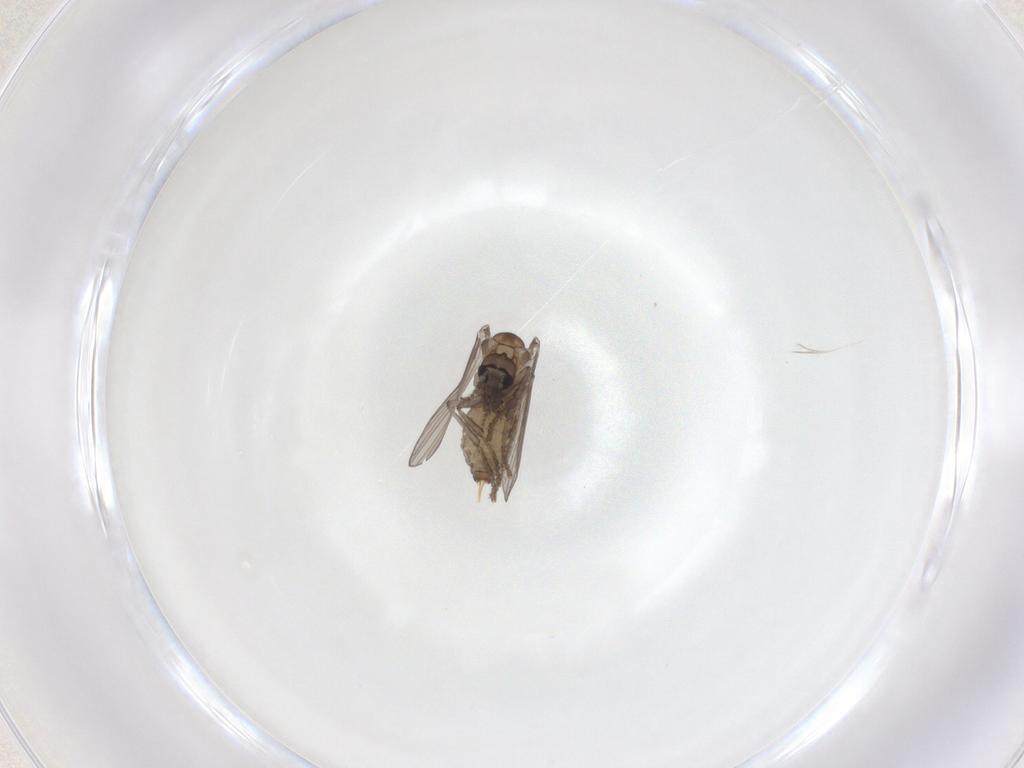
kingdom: Animalia
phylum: Arthropoda
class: Insecta
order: Diptera
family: Psychodidae
